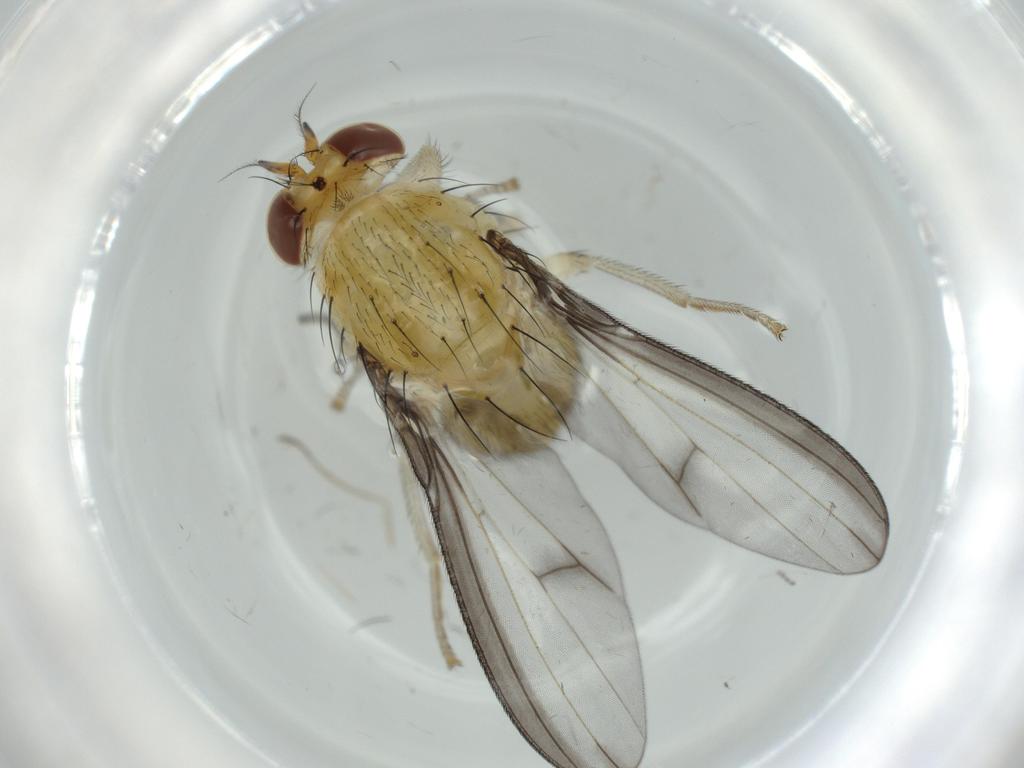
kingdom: Animalia
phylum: Arthropoda
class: Insecta
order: Diptera
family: Lauxaniidae
